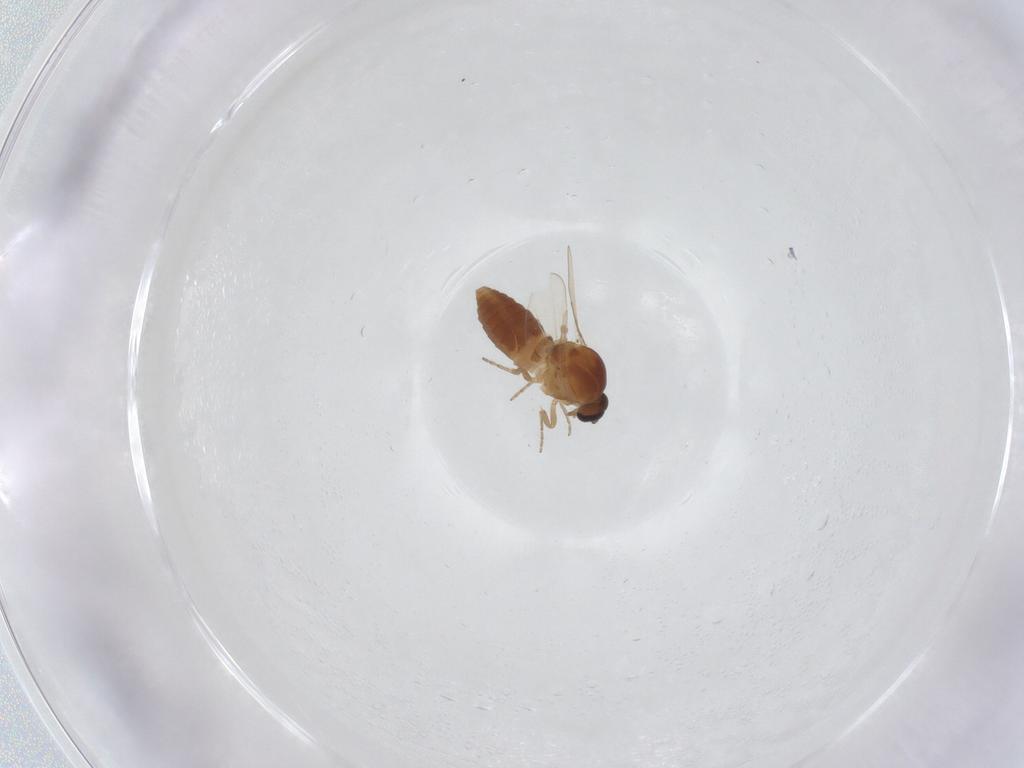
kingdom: Animalia
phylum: Arthropoda
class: Insecta
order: Diptera
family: Ceratopogonidae
